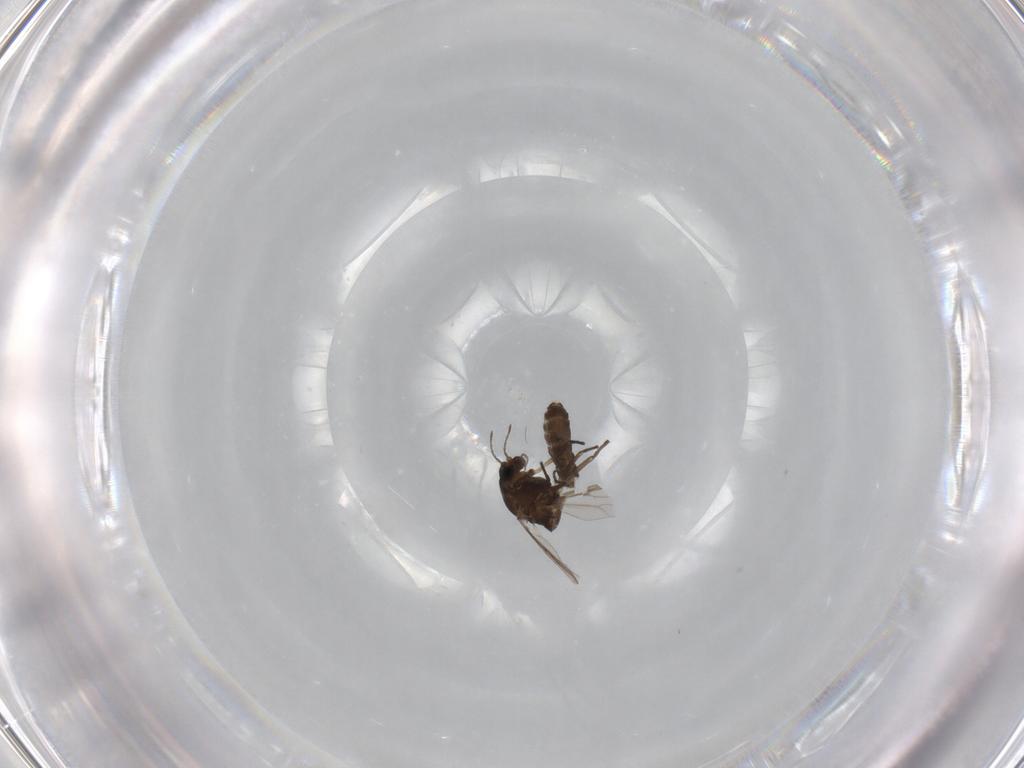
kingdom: Animalia
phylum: Arthropoda
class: Insecta
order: Diptera
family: Chironomidae
